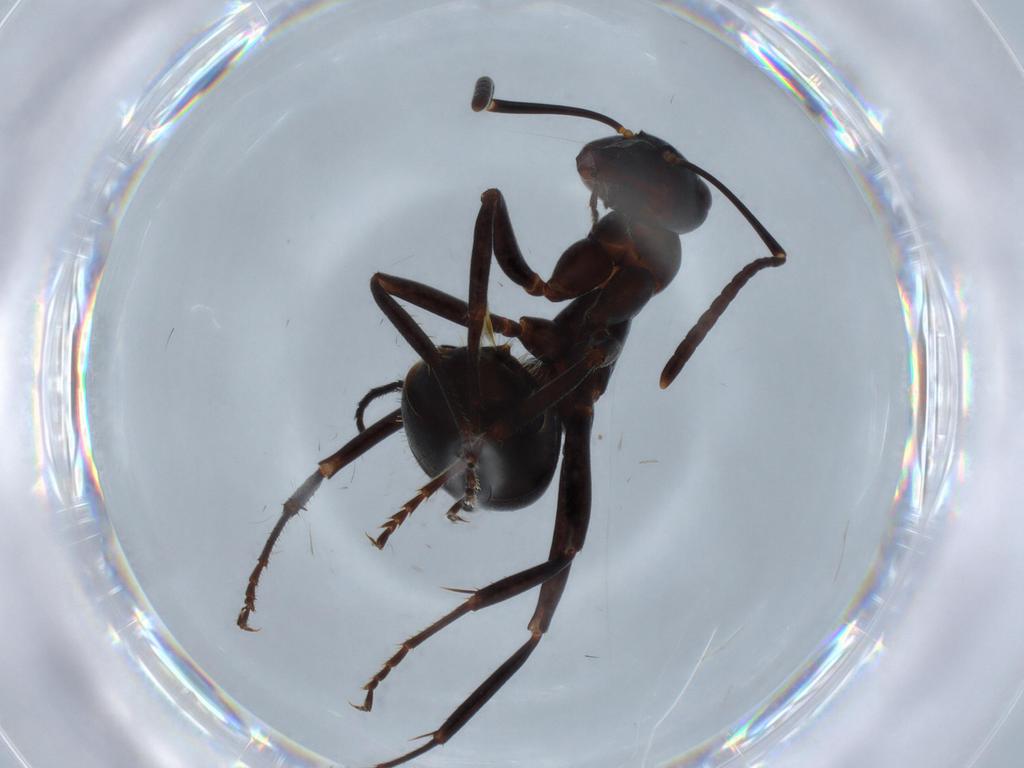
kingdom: Animalia
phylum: Arthropoda
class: Insecta
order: Hymenoptera
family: Formicidae
